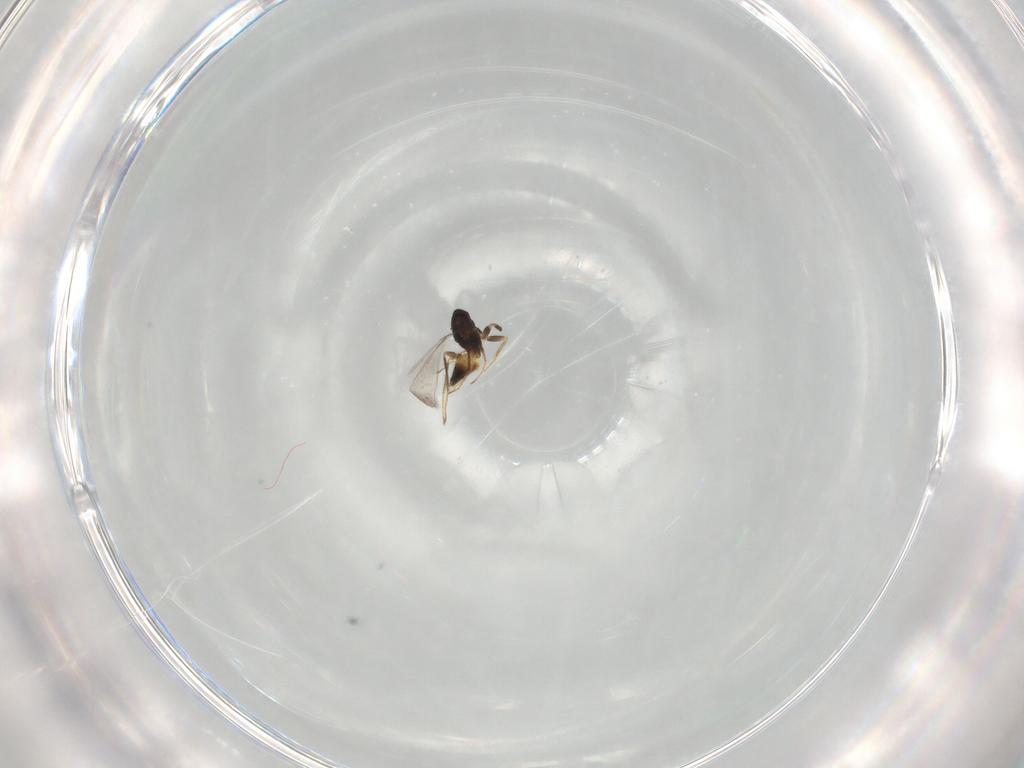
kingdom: Animalia
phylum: Arthropoda
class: Insecta
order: Hymenoptera
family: Mymaridae
